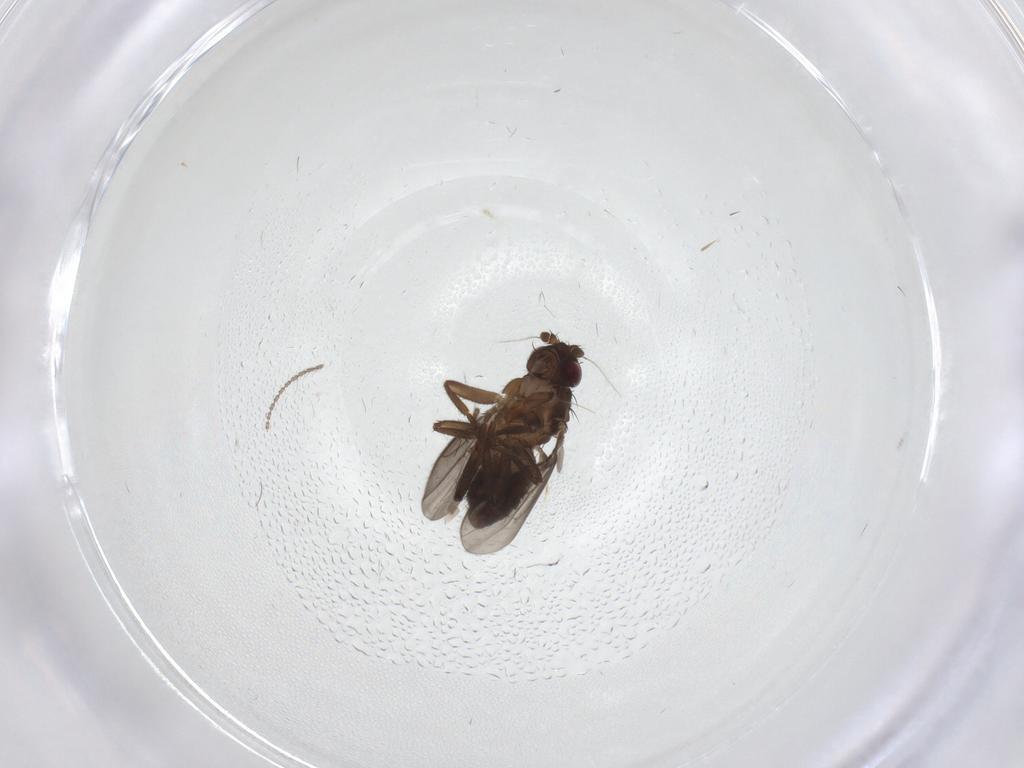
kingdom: Animalia
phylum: Arthropoda
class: Insecta
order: Diptera
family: Sphaeroceridae
